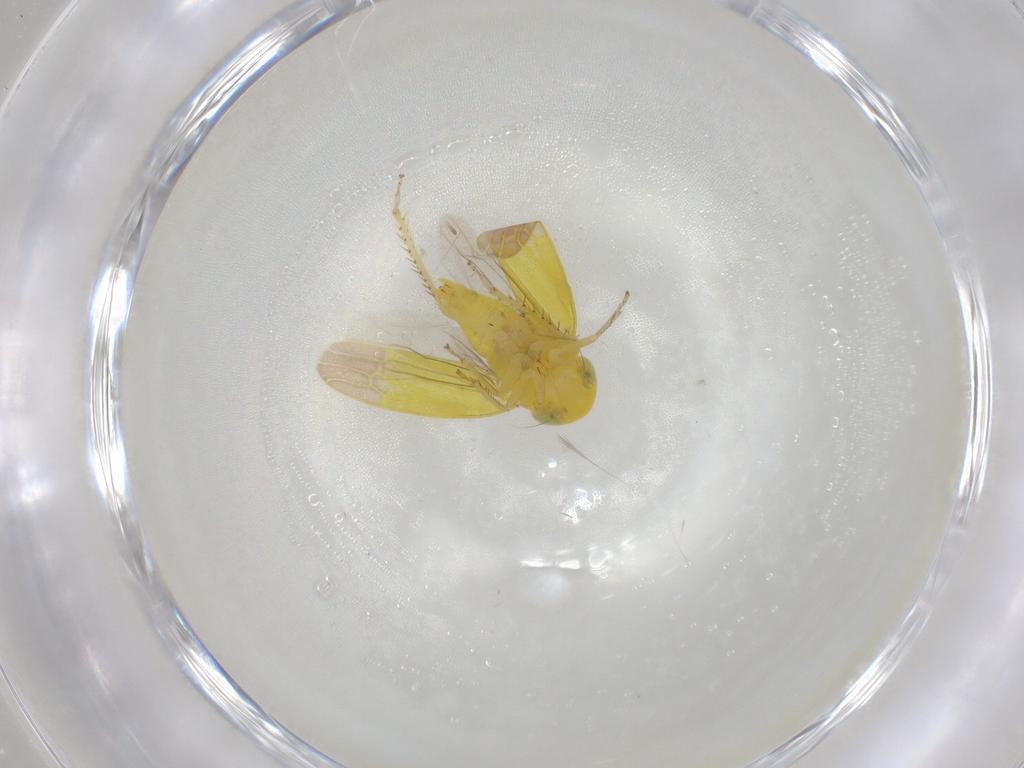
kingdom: Animalia
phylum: Arthropoda
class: Insecta
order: Hemiptera
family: Cicadellidae
